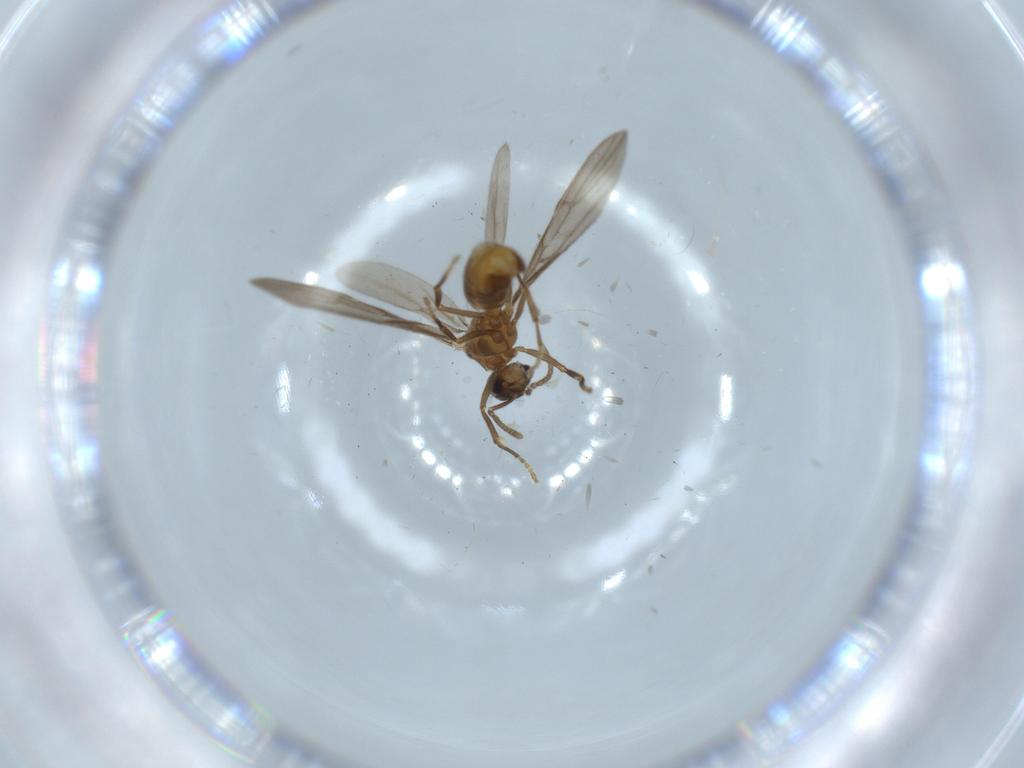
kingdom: Animalia
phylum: Arthropoda
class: Insecta
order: Hymenoptera
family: Formicidae
